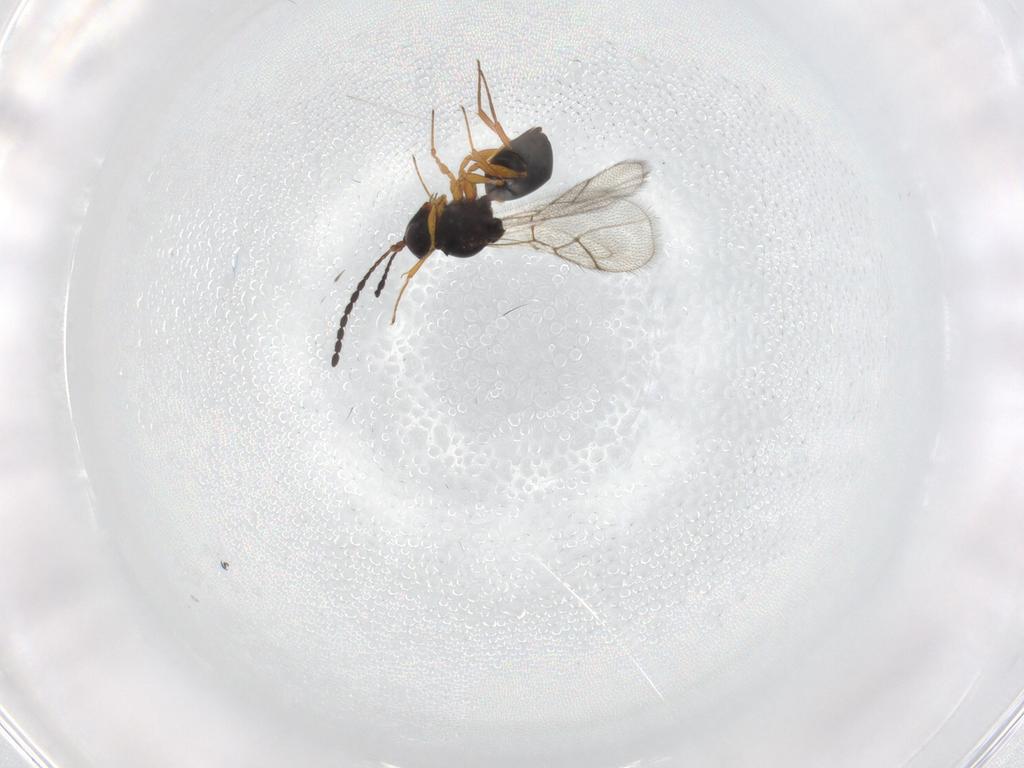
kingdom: Animalia
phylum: Arthropoda
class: Insecta
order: Hymenoptera
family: Figitidae
